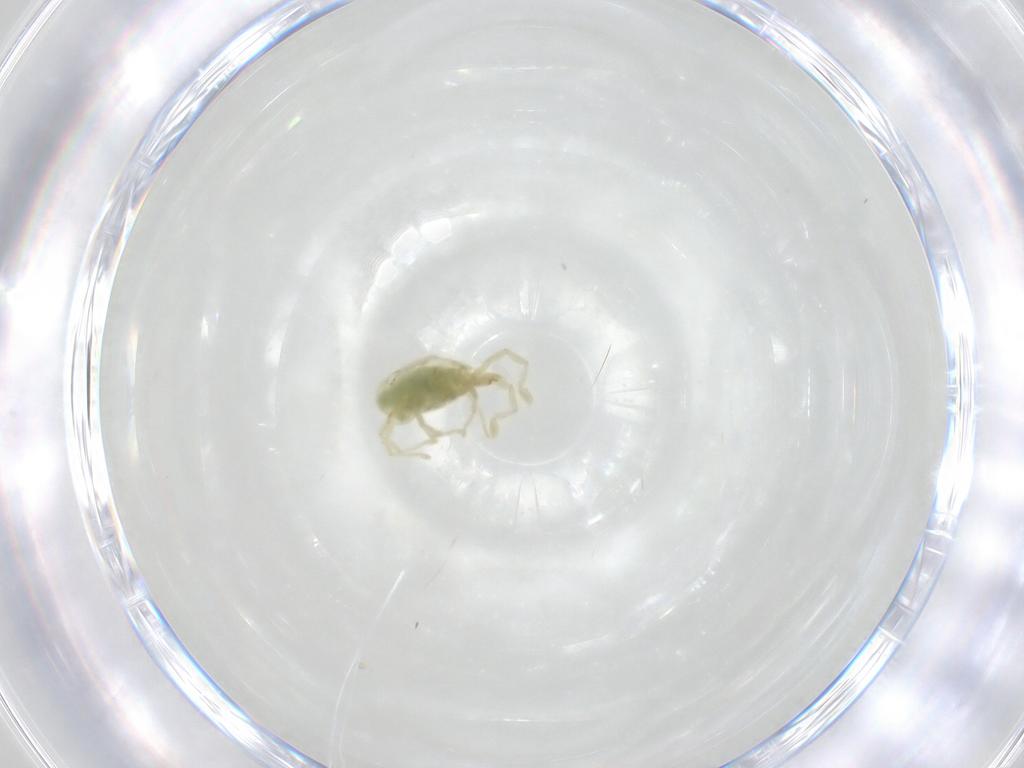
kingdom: Animalia
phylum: Arthropoda
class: Arachnida
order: Trombidiformes
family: Erythraeidae
